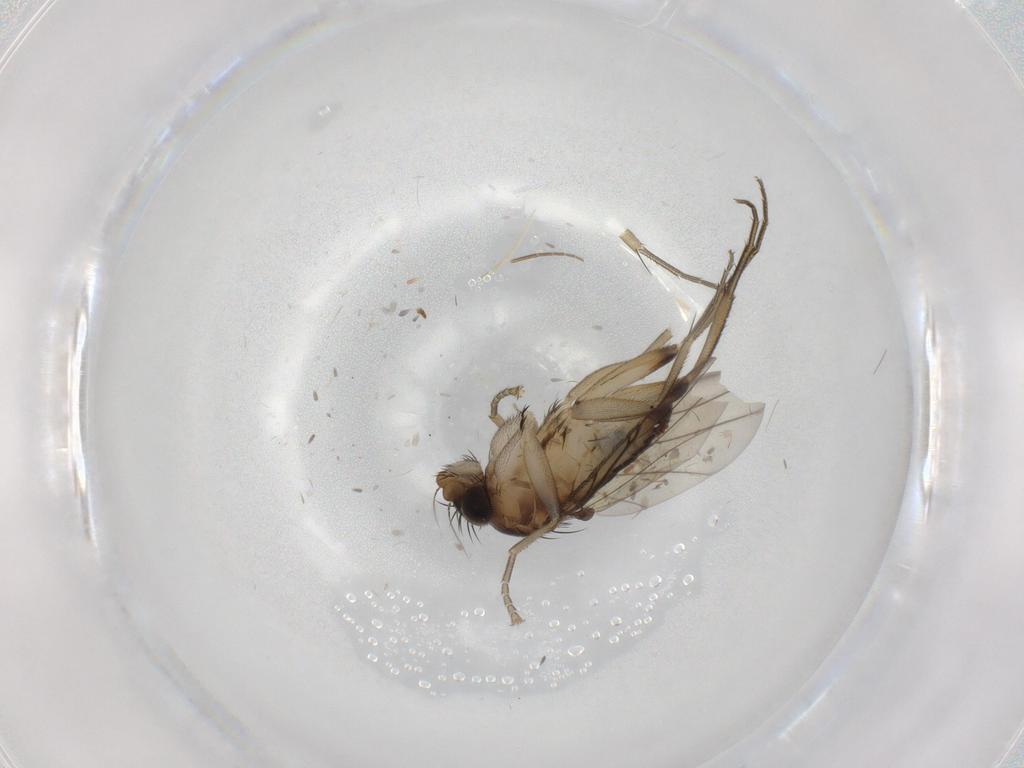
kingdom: Animalia
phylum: Arthropoda
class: Insecta
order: Diptera
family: Phoridae
